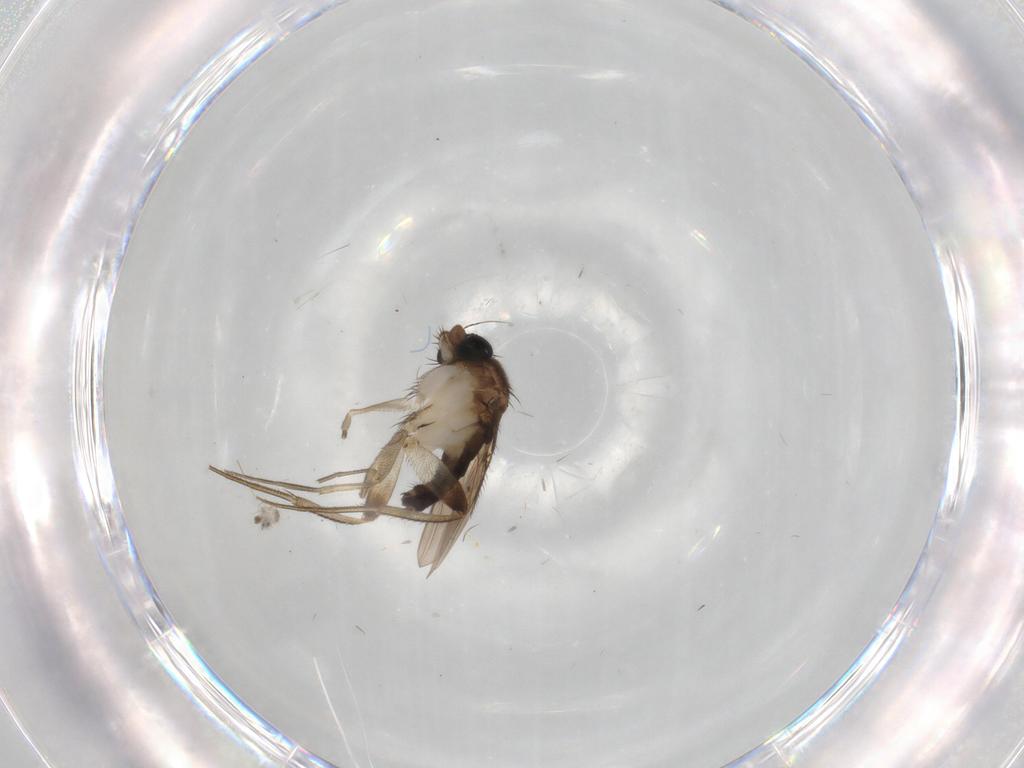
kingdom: Animalia
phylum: Arthropoda
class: Insecta
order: Diptera
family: Phoridae
